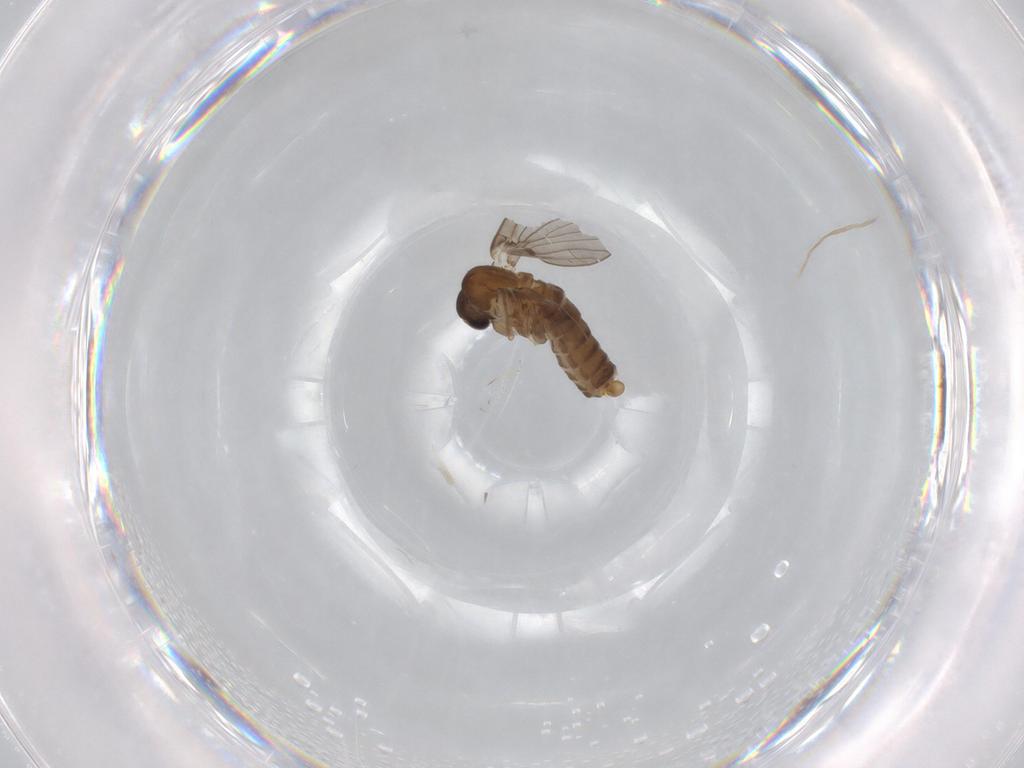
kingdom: Animalia
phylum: Arthropoda
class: Insecta
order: Diptera
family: Psychodidae
